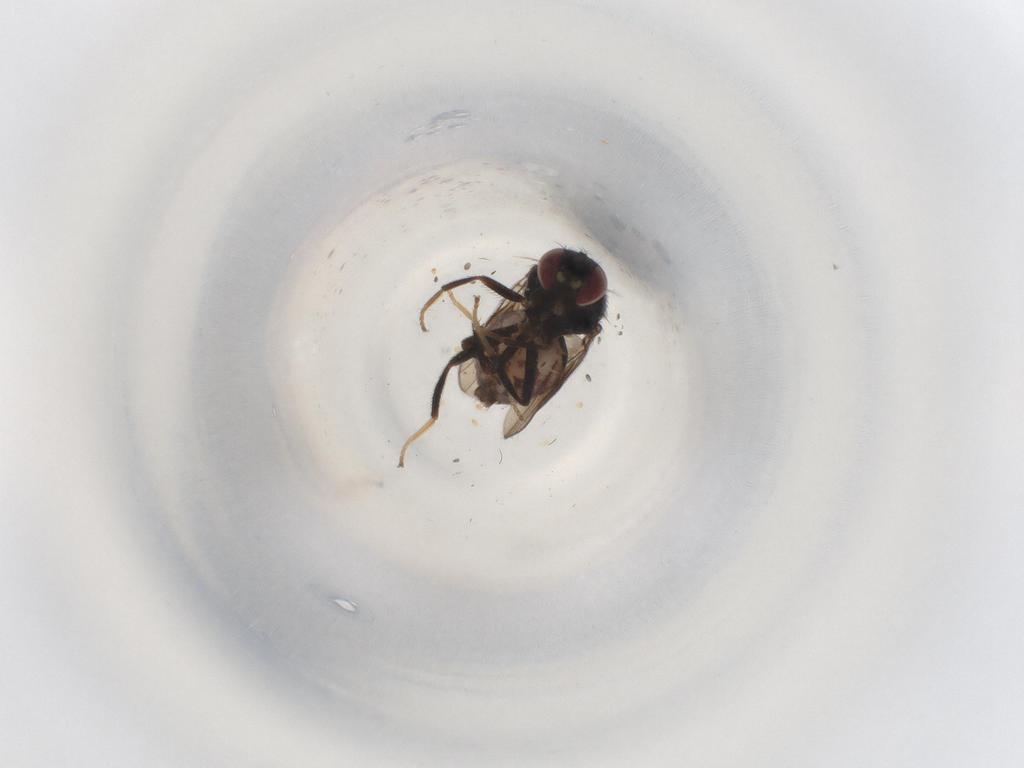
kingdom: Animalia
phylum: Arthropoda
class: Insecta
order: Diptera
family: Chloropidae
